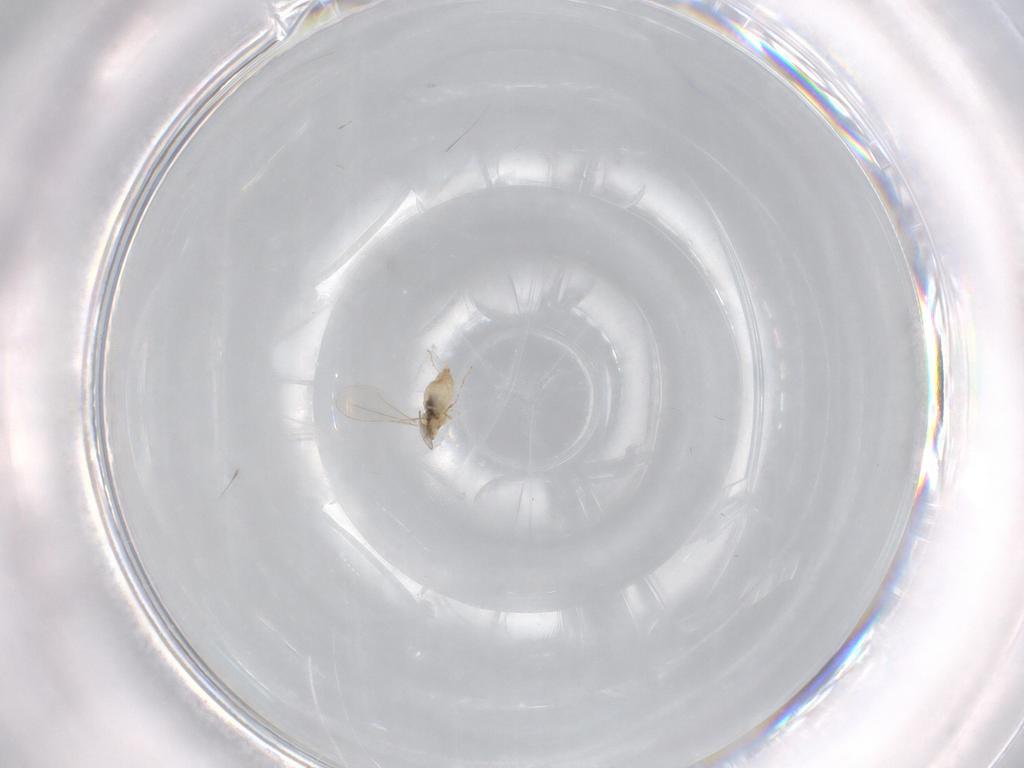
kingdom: Animalia
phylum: Arthropoda
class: Insecta
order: Diptera
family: Cecidomyiidae
